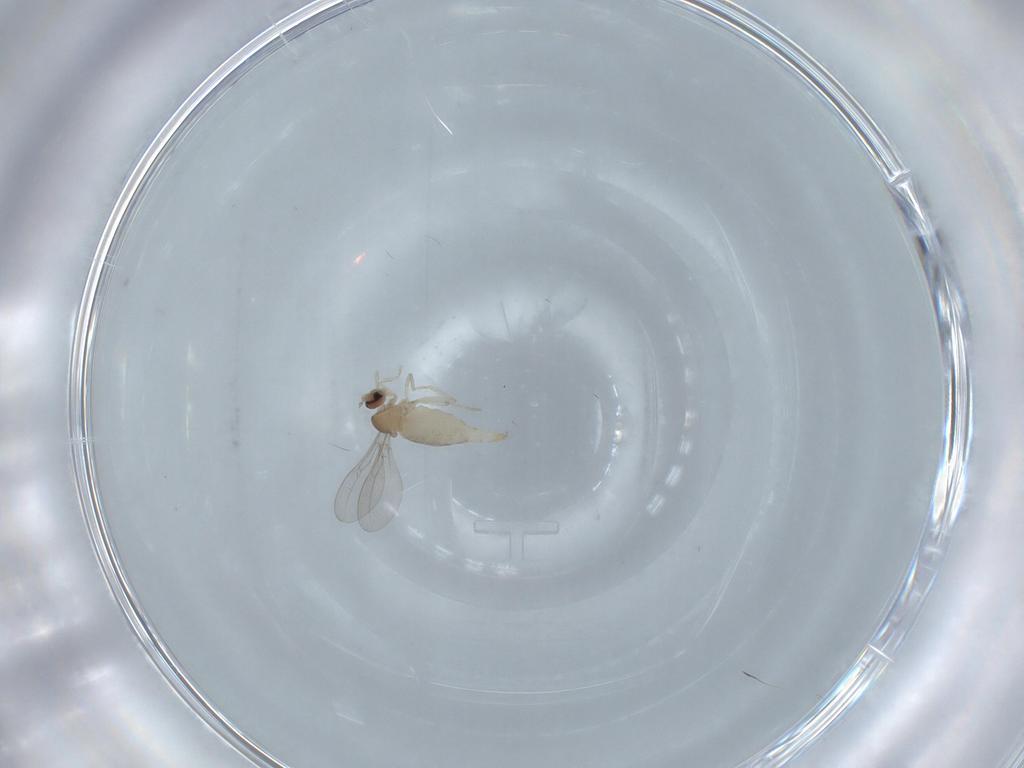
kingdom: Animalia
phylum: Arthropoda
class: Insecta
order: Diptera
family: Cecidomyiidae
